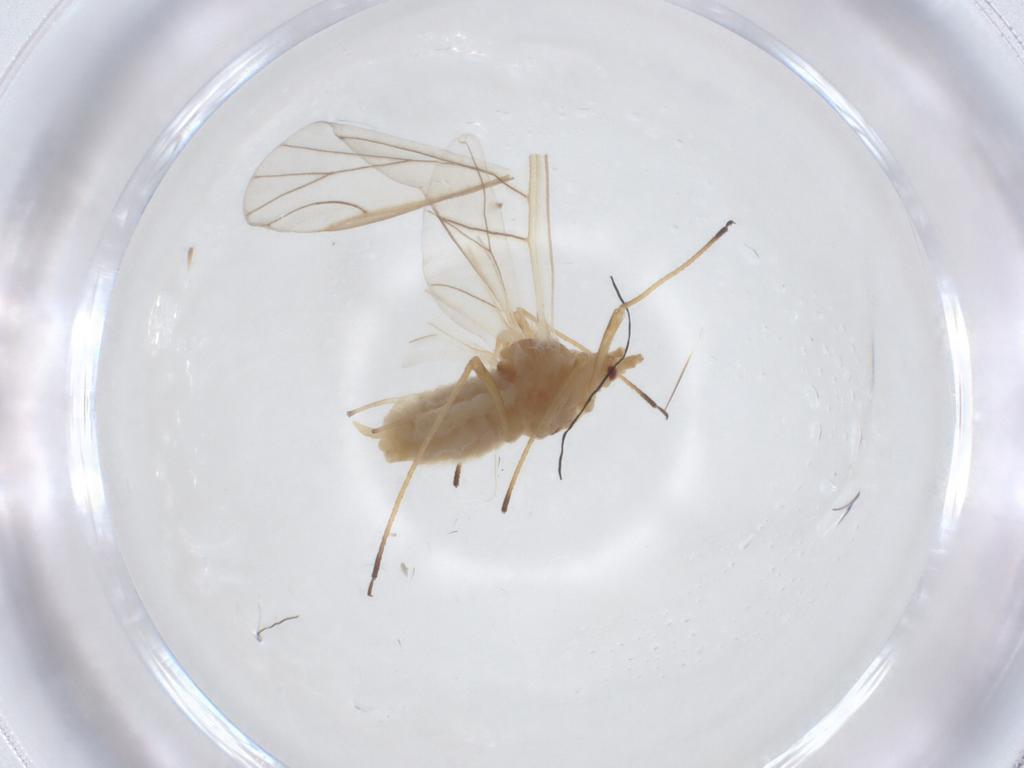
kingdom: Animalia
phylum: Arthropoda
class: Insecta
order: Hemiptera
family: Aphididae
